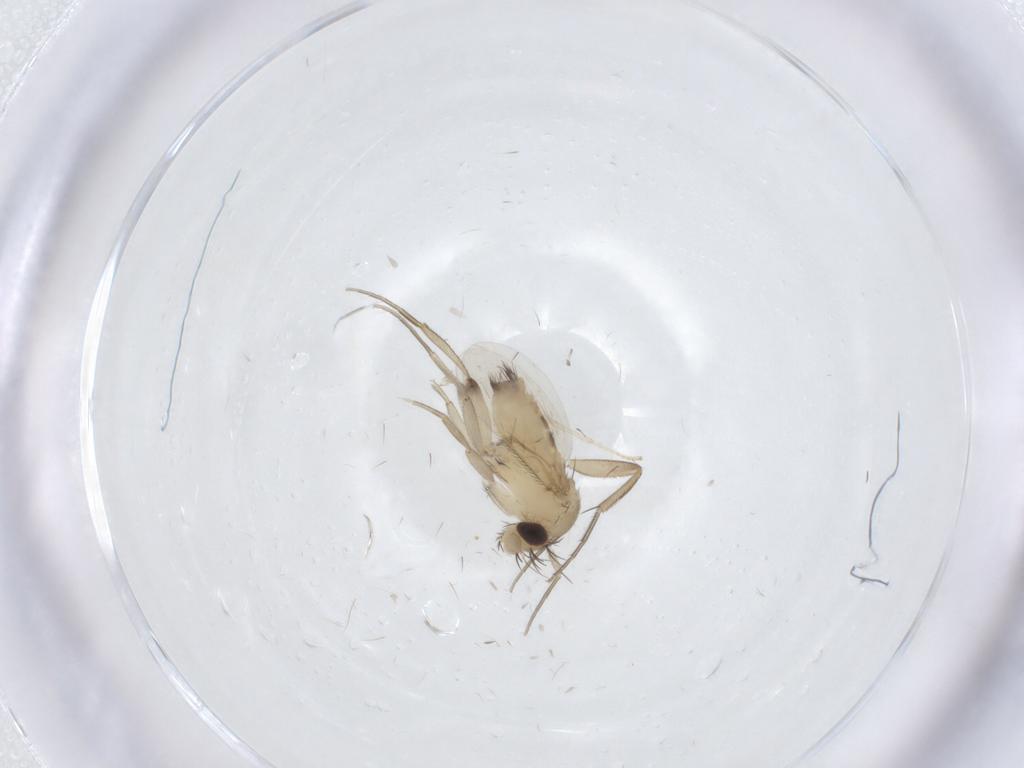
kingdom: Animalia
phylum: Arthropoda
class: Insecta
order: Diptera
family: Phoridae
